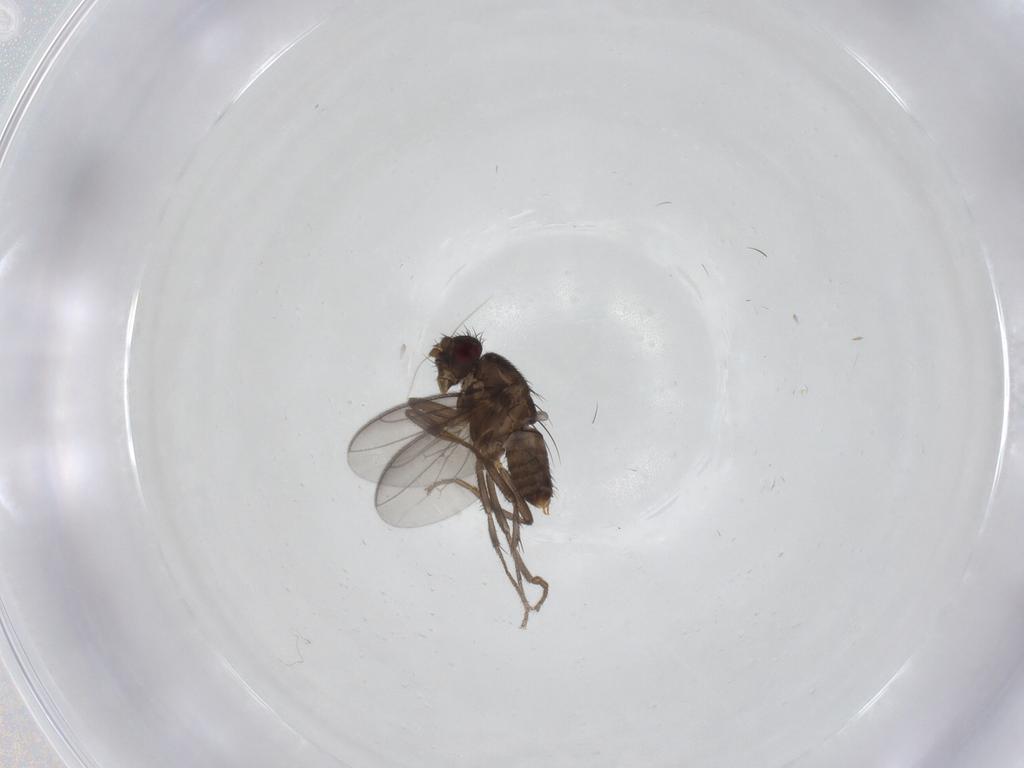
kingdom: Animalia
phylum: Arthropoda
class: Insecta
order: Diptera
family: Sphaeroceridae
